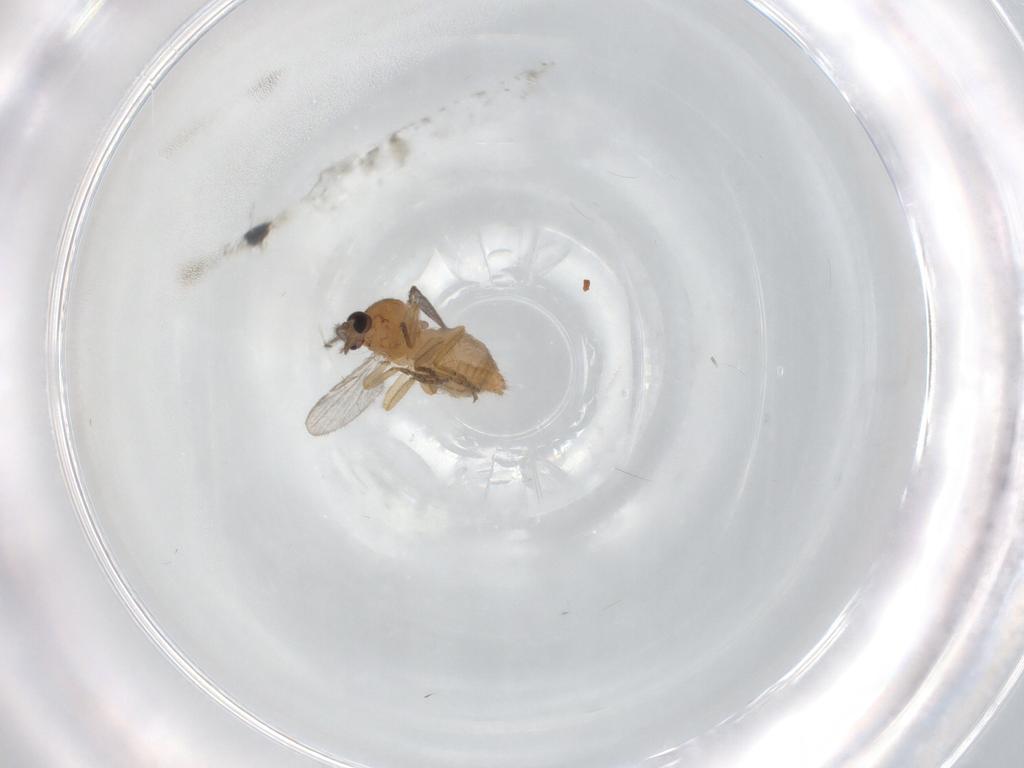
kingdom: Animalia
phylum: Arthropoda
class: Insecta
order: Diptera
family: Ceratopogonidae
